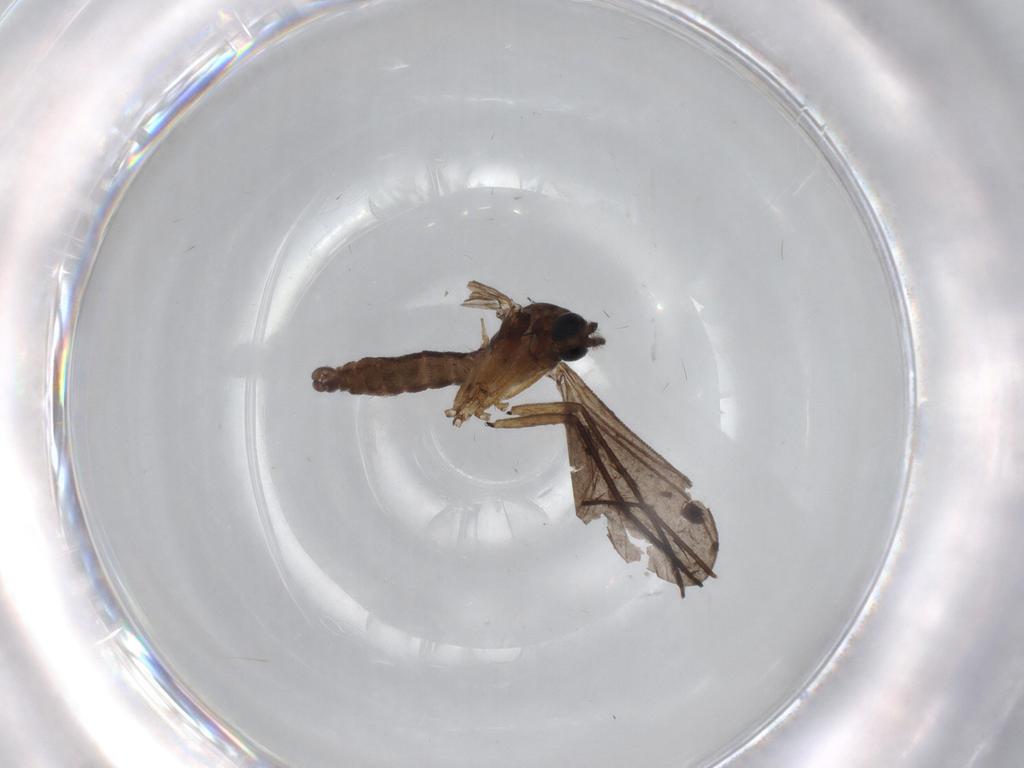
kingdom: Animalia
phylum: Arthropoda
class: Insecta
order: Diptera
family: Sciaridae
